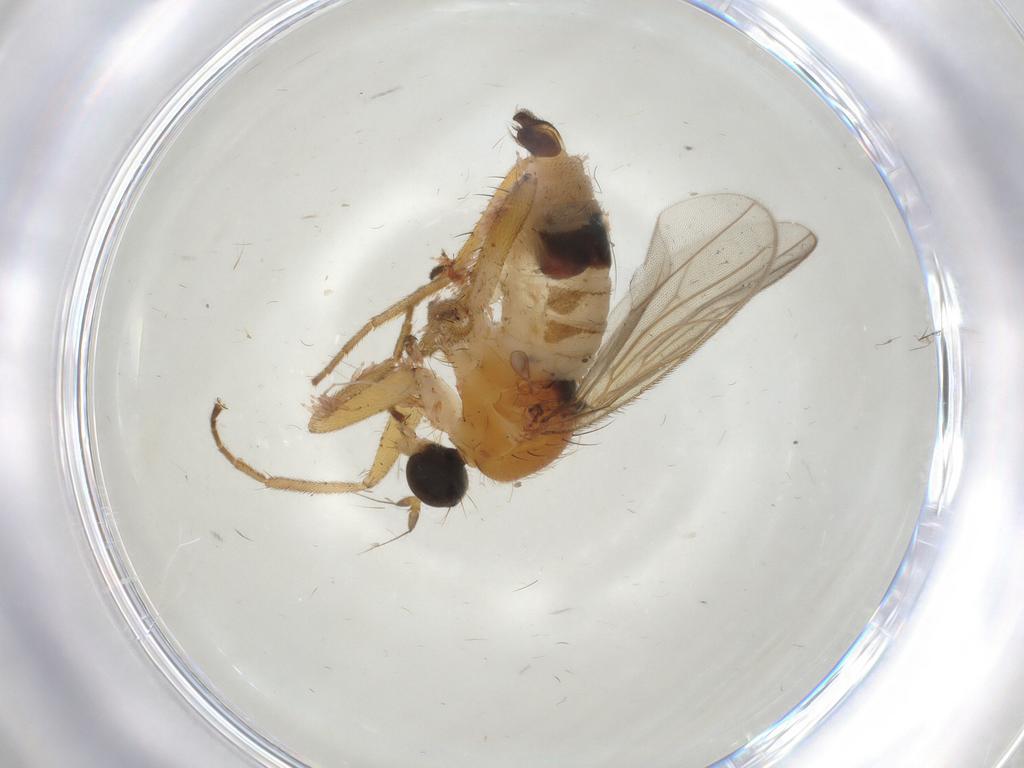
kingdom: Animalia
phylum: Arthropoda
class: Insecta
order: Diptera
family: Hybotidae
